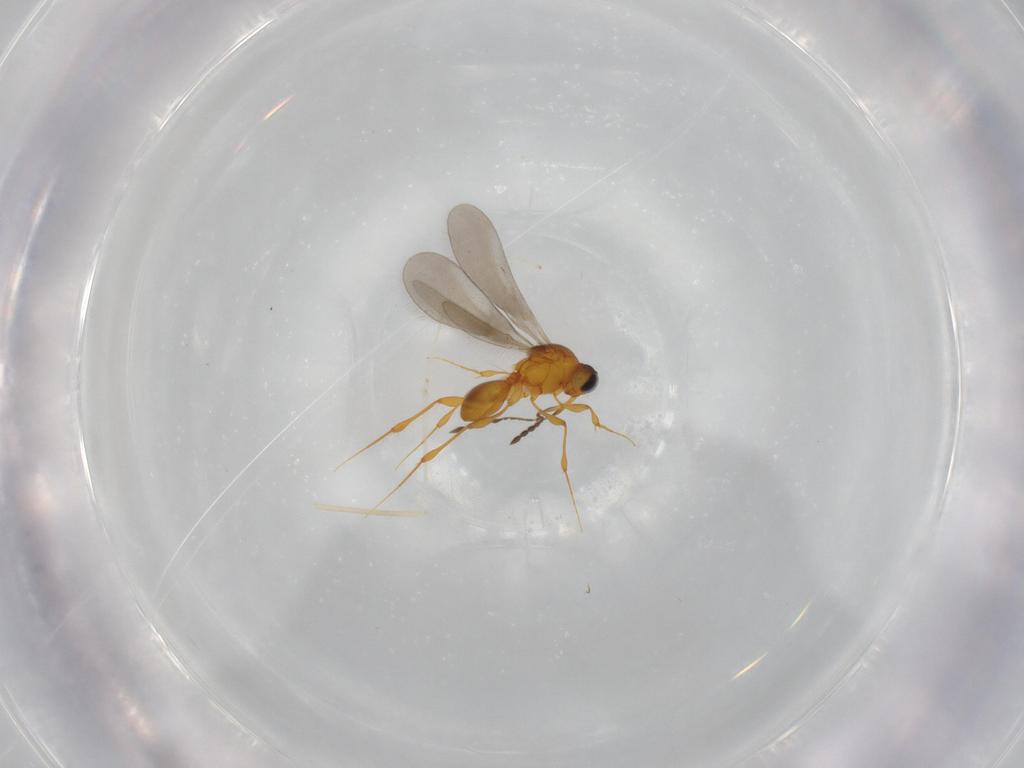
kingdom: Animalia
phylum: Arthropoda
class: Insecta
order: Hymenoptera
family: Platygastridae
